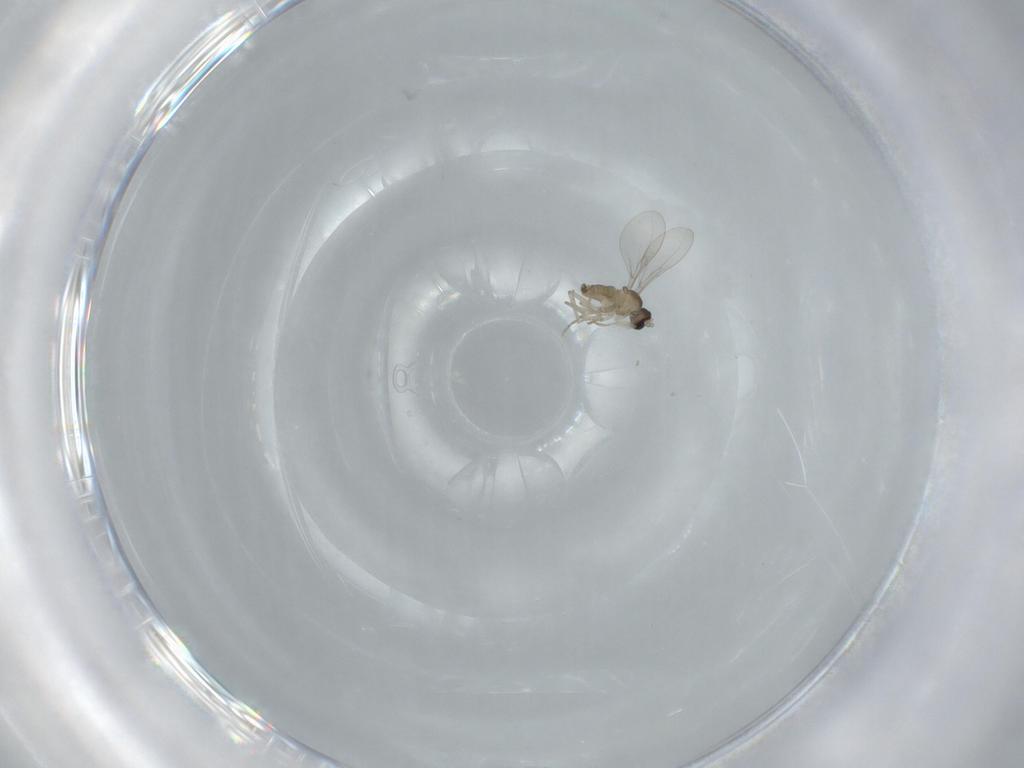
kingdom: Animalia
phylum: Arthropoda
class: Insecta
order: Diptera
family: Cecidomyiidae
